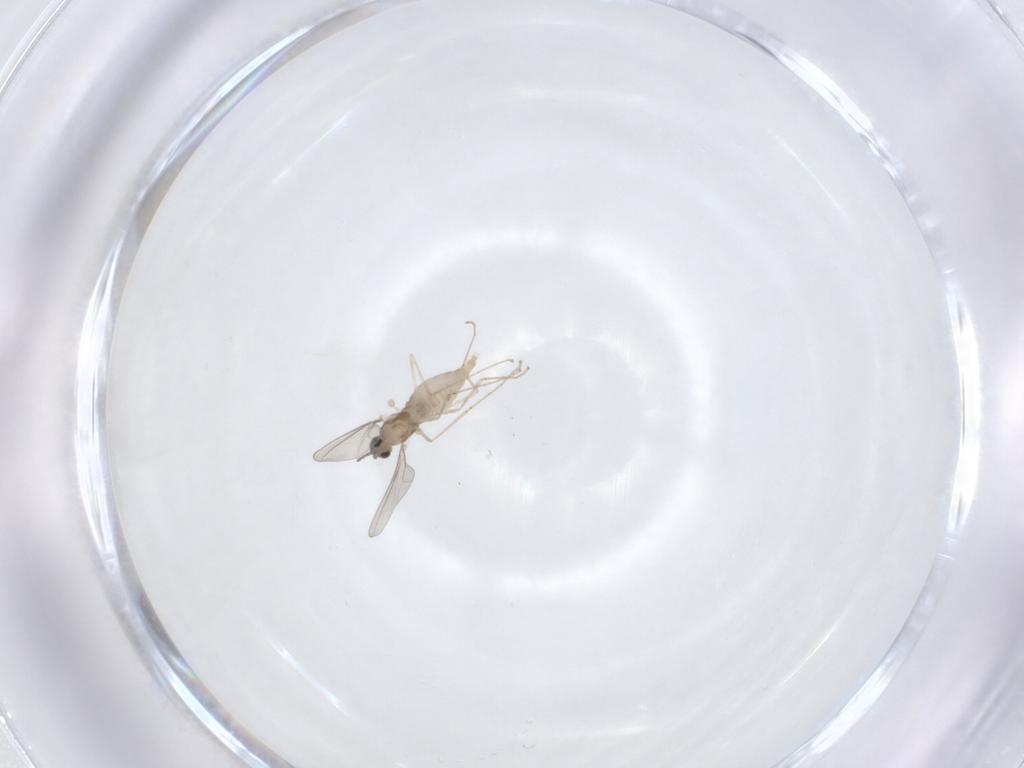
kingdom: Animalia
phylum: Arthropoda
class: Insecta
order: Diptera
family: Cecidomyiidae
